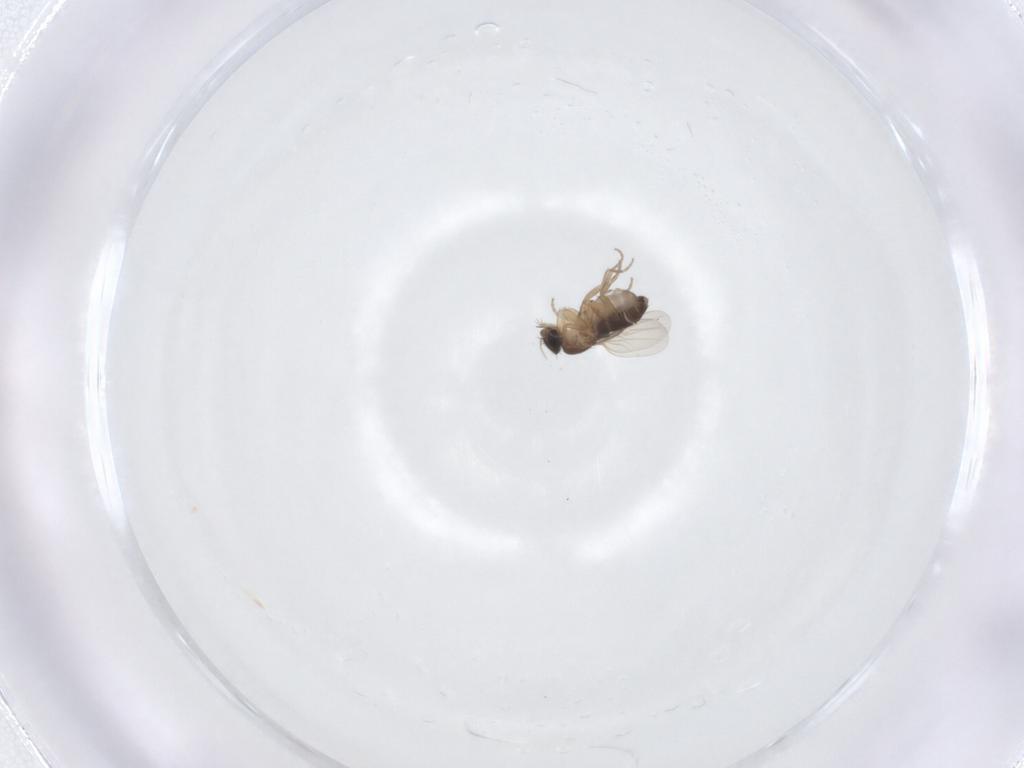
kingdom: Animalia
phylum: Arthropoda
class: Insecta
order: Diptera
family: Phoridae
